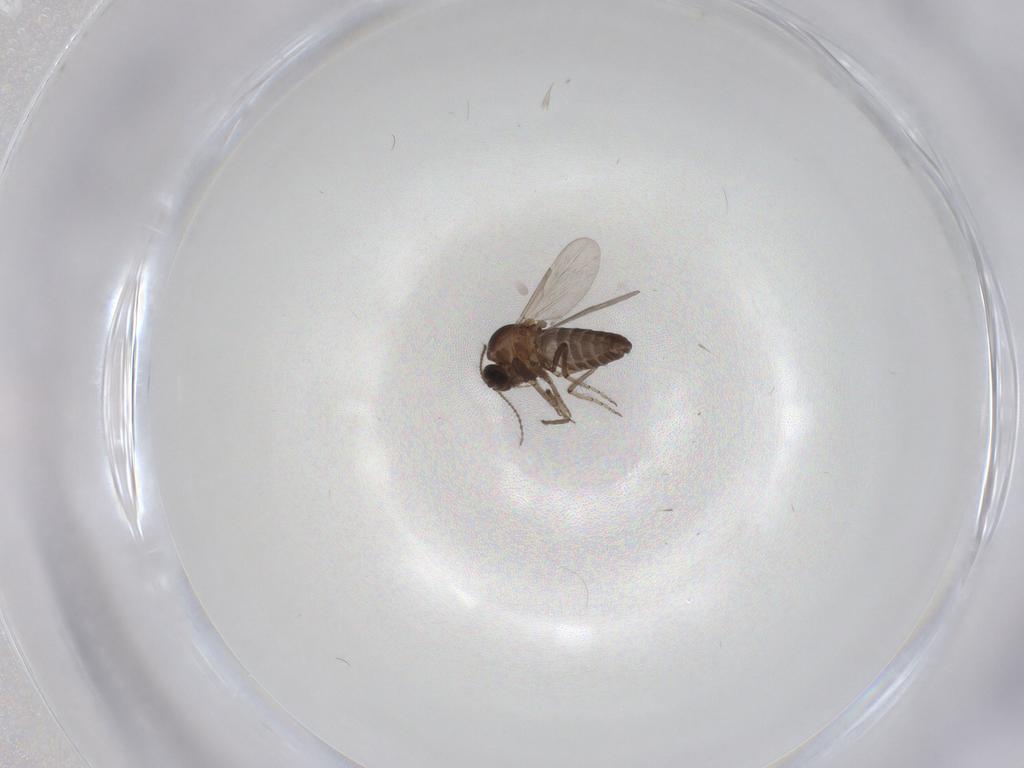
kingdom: Animalia
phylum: Arthropoda
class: Insecta
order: Diptera
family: Ceratopogonidae
